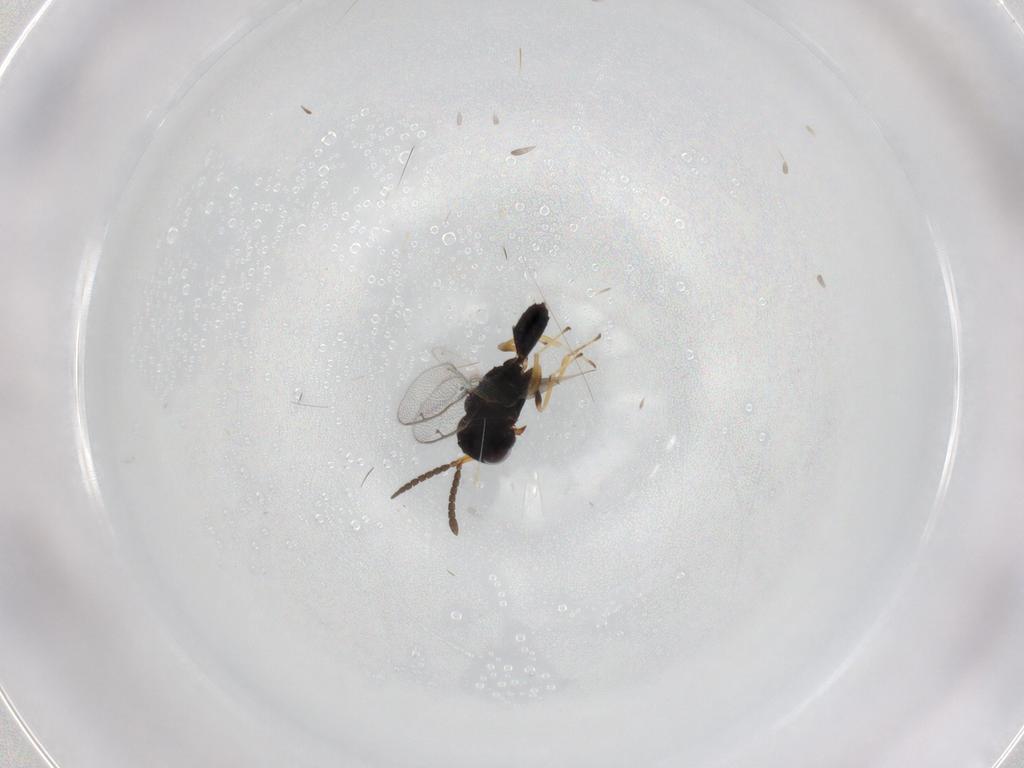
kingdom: Animalia
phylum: Arthropoda
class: Insecta
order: Hymenoptera
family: Pteromalidae
